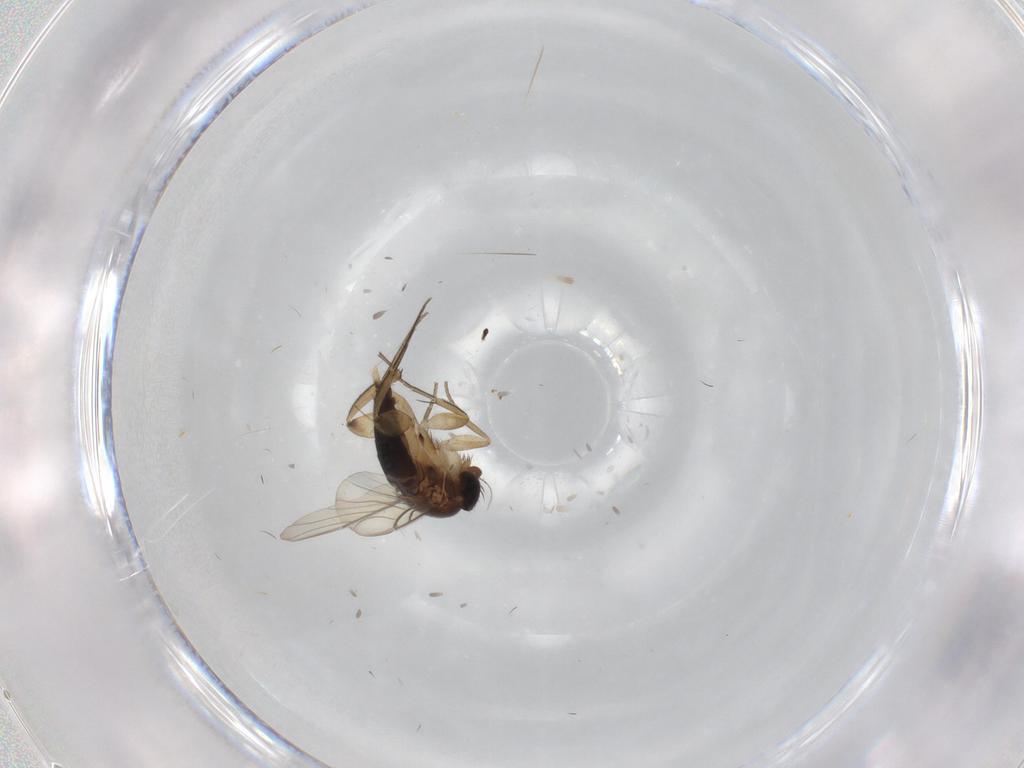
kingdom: Animalia
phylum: Arthropoda
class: Insecta
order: Diptera
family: Phoridae
